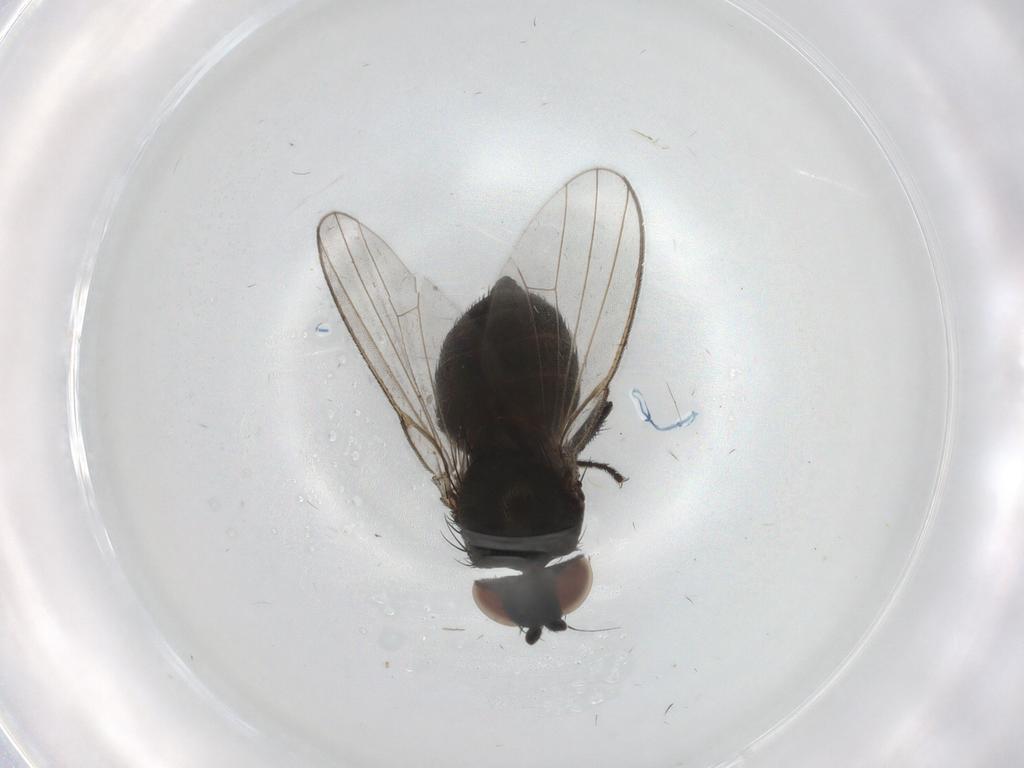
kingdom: Animalia
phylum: Arthropoda
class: Insecta
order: Diptera
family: Milichiidae
